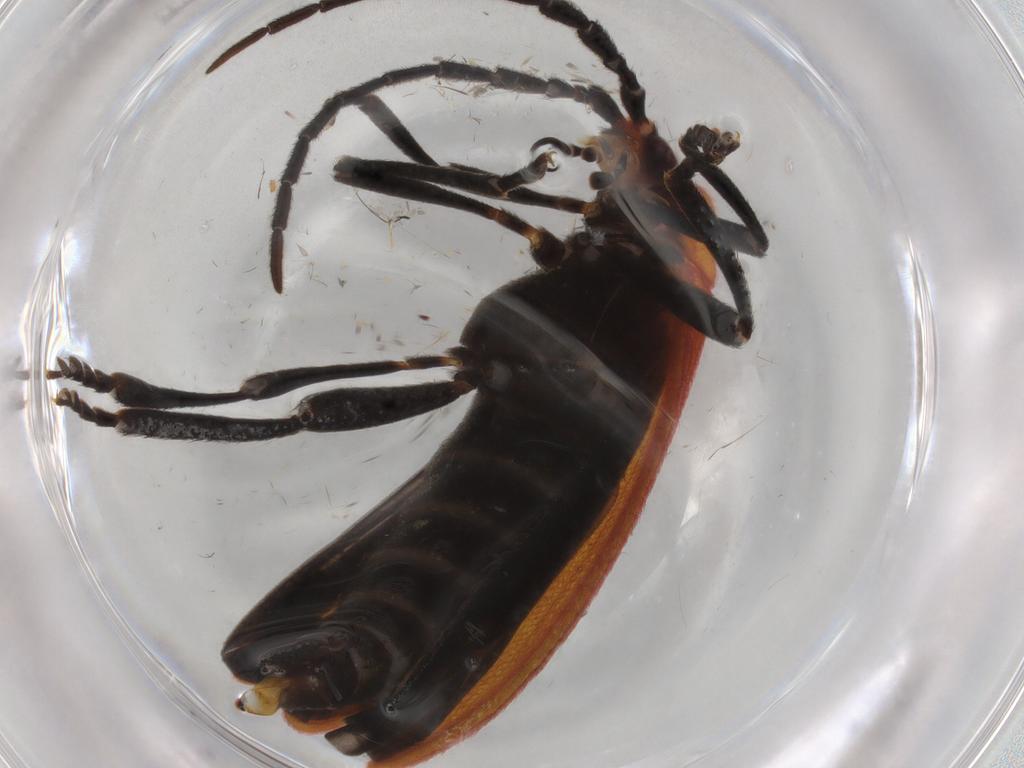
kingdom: Animalia
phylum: Arthropoda
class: Insecta
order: Coleoptera
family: Lycidae
